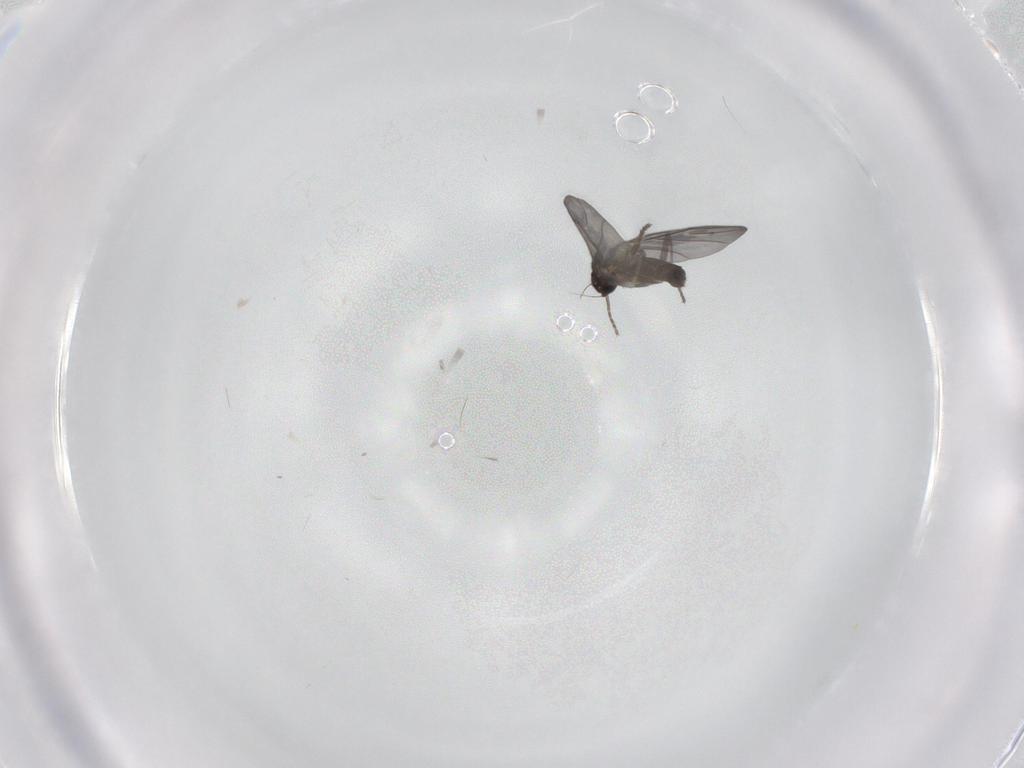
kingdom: Animalia
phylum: Arthropoda
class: Insecta
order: Diptera
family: Phoridae
